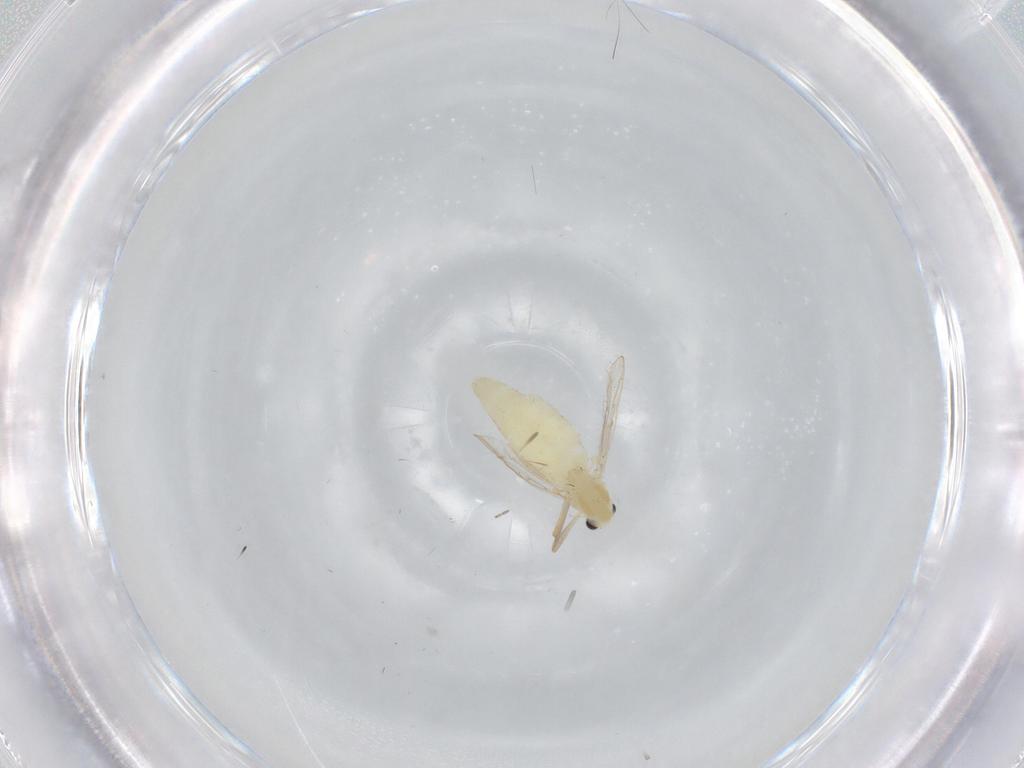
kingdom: Animalia
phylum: Arthropoda
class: Insecta
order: Diptera
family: Chironomidae
